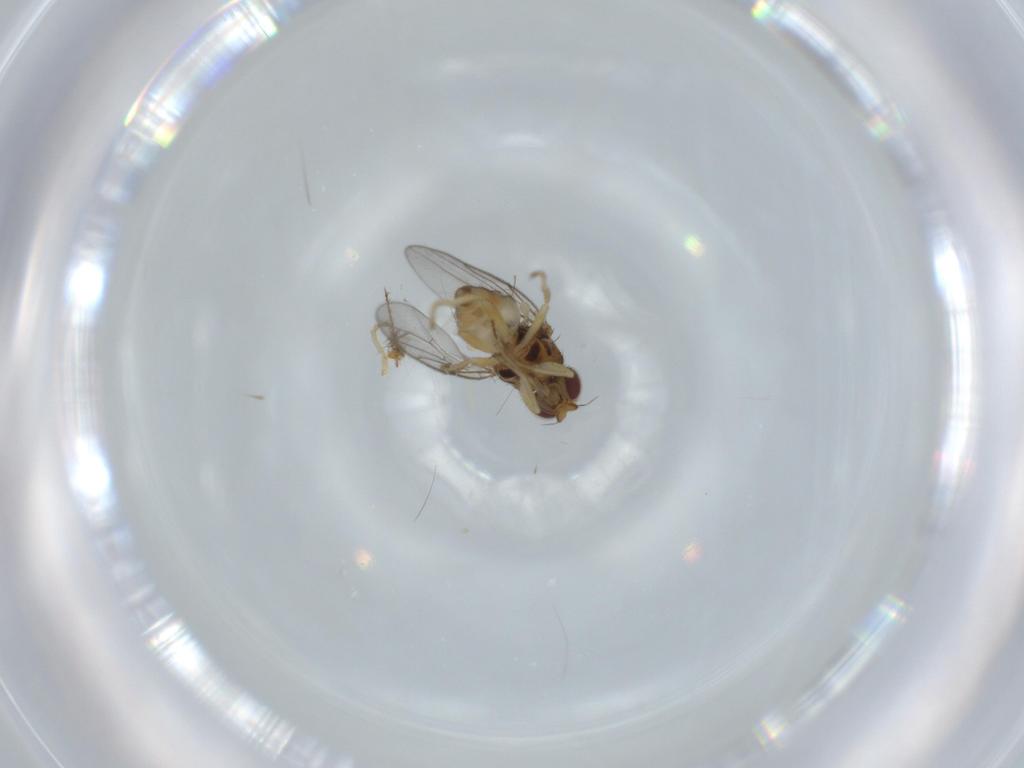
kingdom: Animalia
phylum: Arthropoda
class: Insecta
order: Diptera
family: Chloropidae
